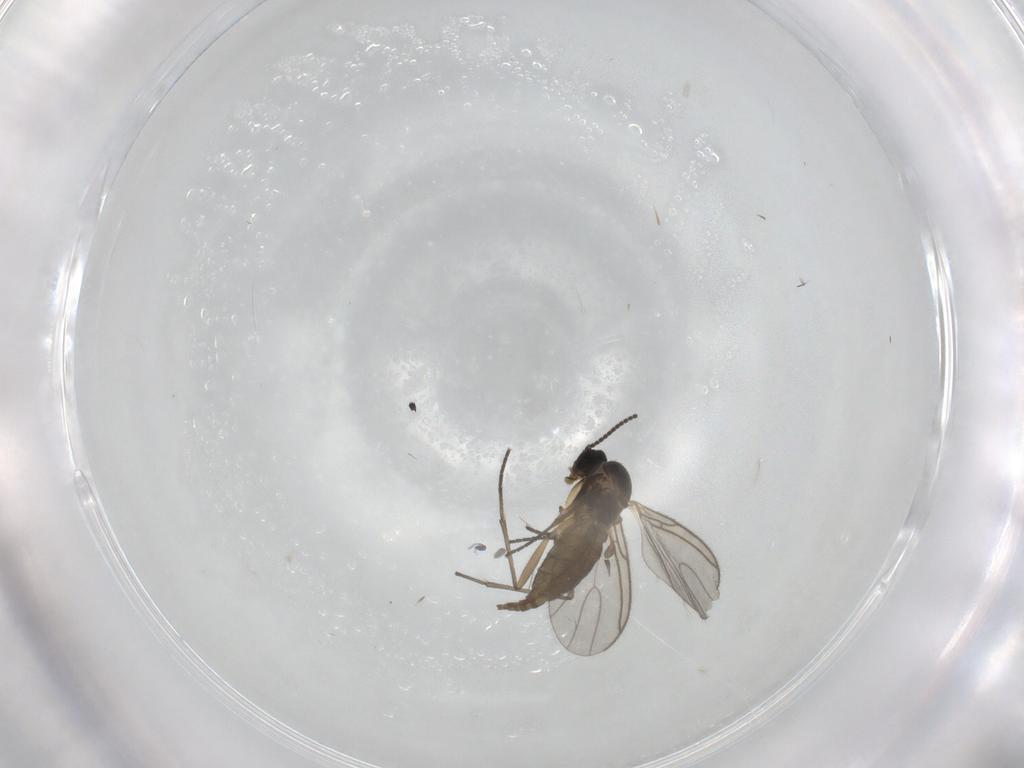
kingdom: Animalia
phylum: Arthropoda
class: Insecta
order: Diptera
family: Sciaridae
